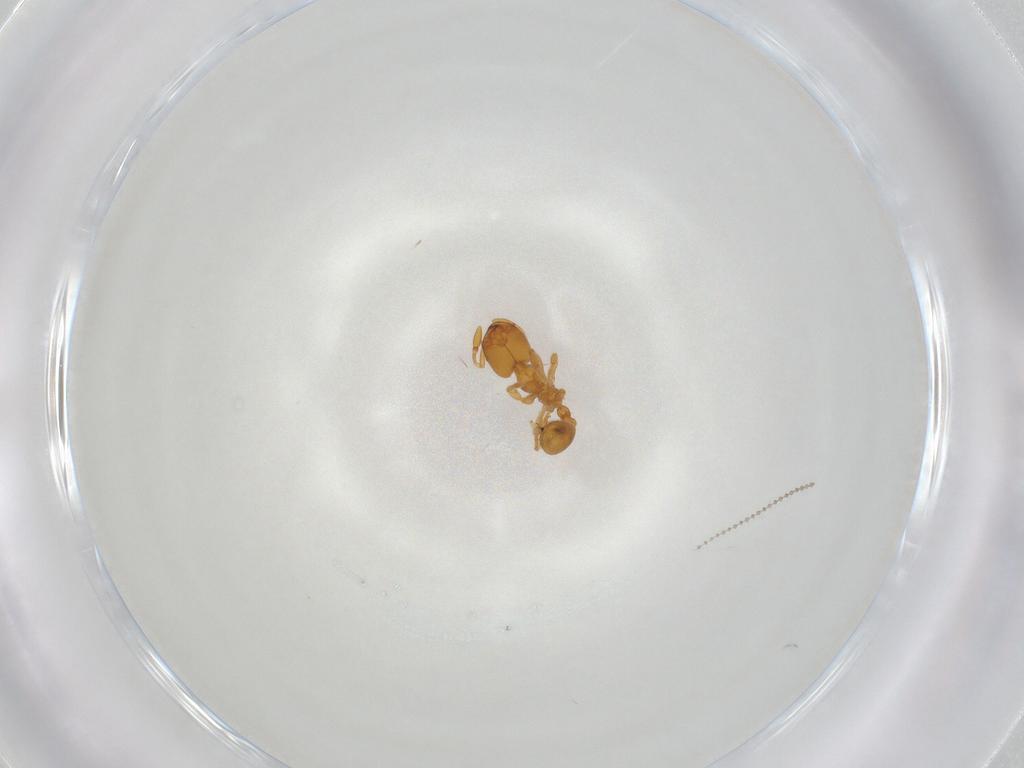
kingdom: Animalia
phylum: Arthropoda
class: Insecta
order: Hymenoptera
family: Formicidae
